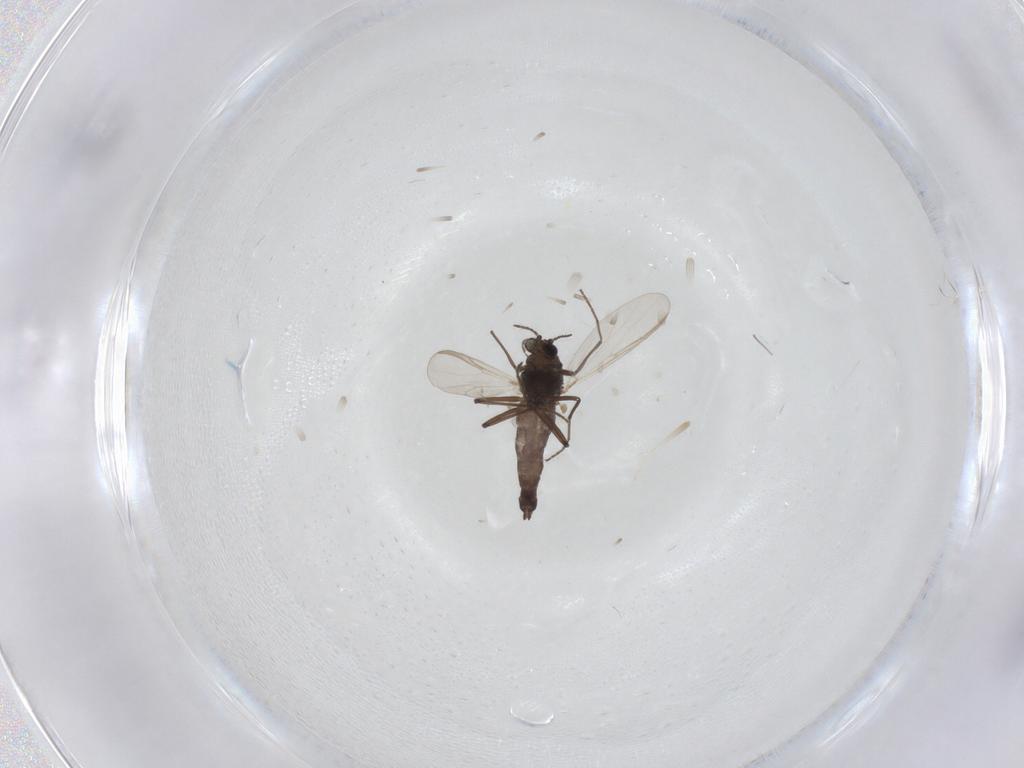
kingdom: Animalia
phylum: Arthropoda
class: Insecta
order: Diptera
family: Chironomidae
